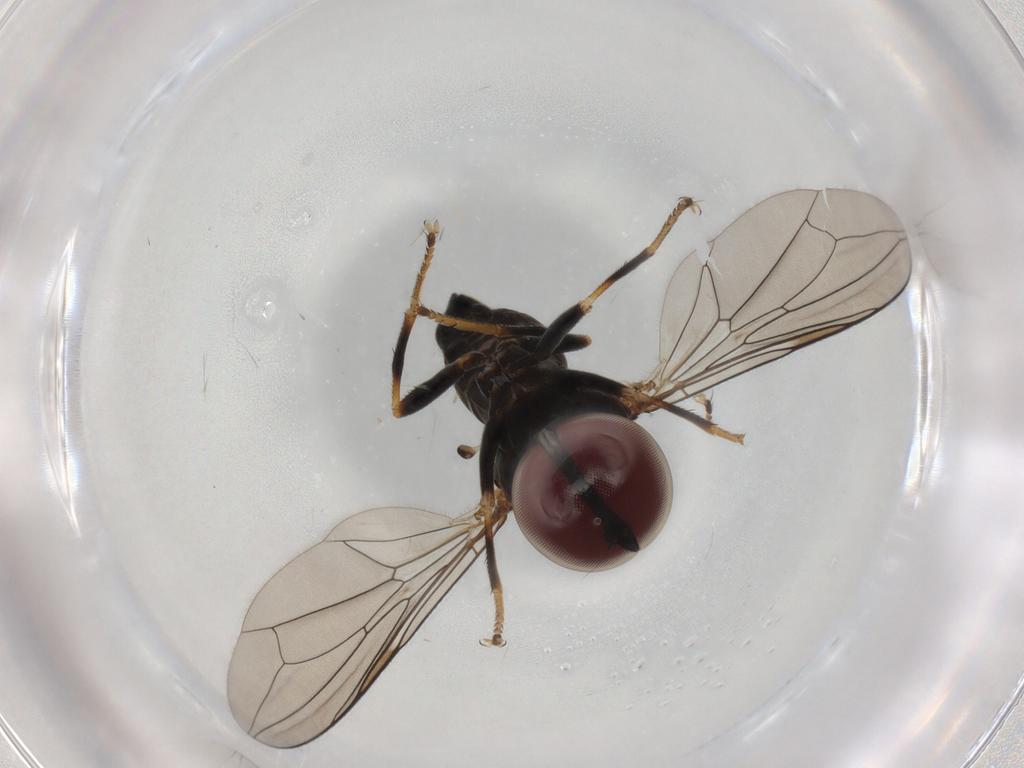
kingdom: Animalia
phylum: Arthropoda
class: Insecta
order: Diptera
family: Pipunculidae
